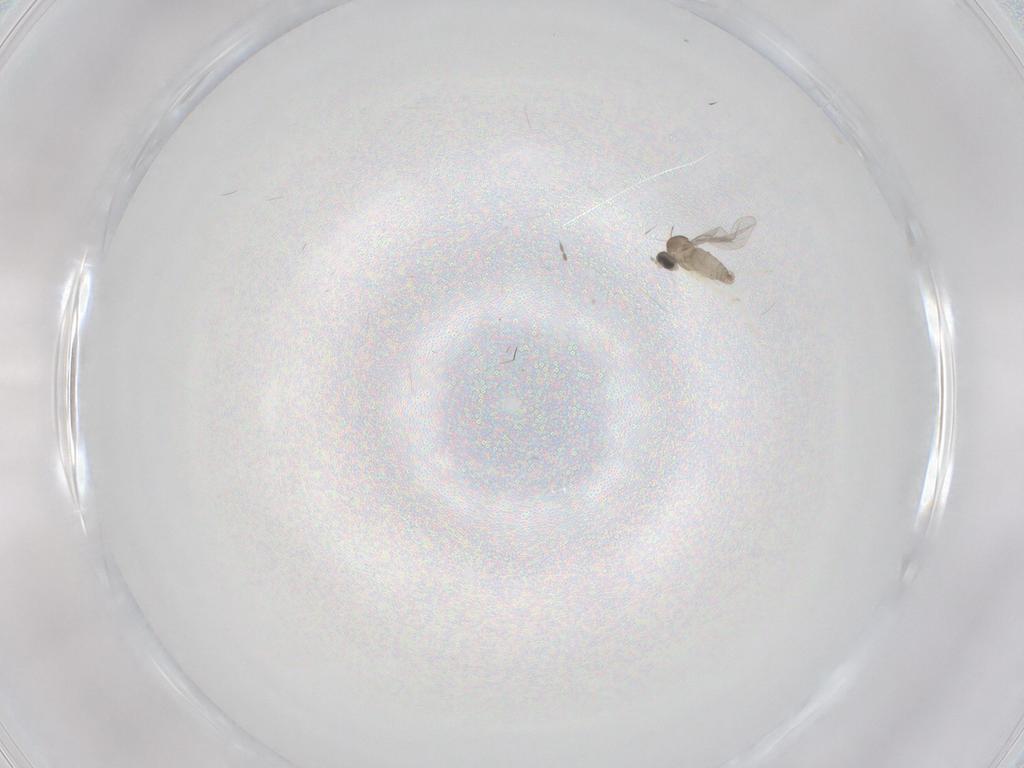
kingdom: Animalia
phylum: Arthropoda
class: Insecta
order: Diptera
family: Cecidomyiidae
